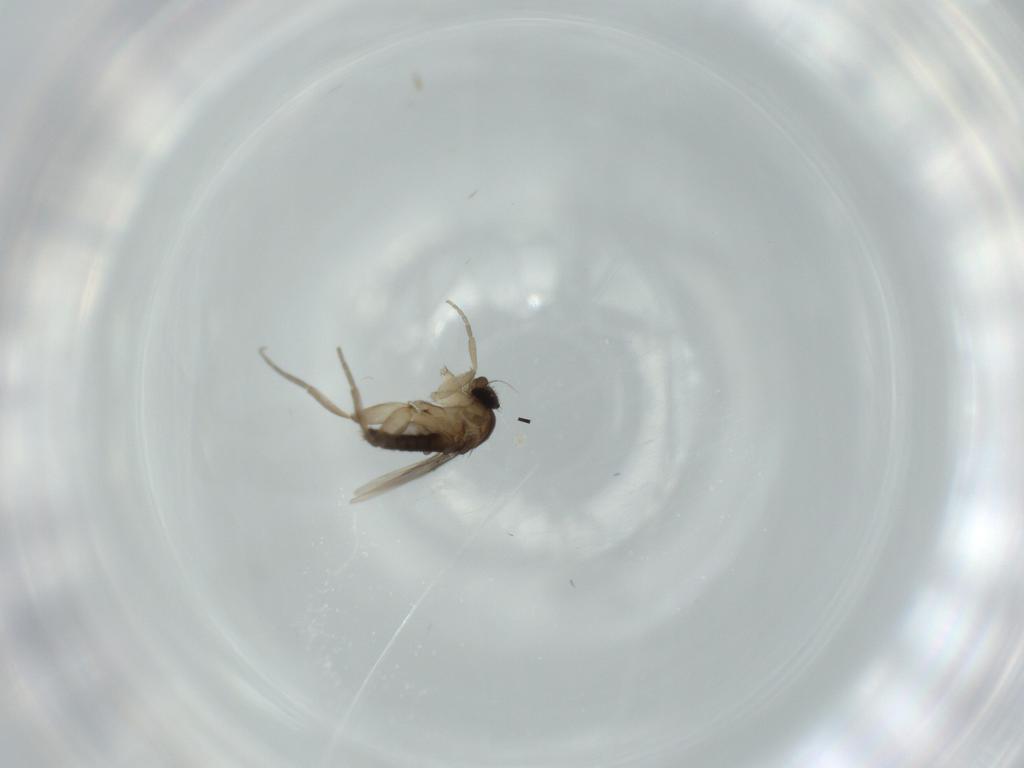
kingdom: Animalia
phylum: Arthropoda
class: Insecta
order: Diptera
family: Phoridae
